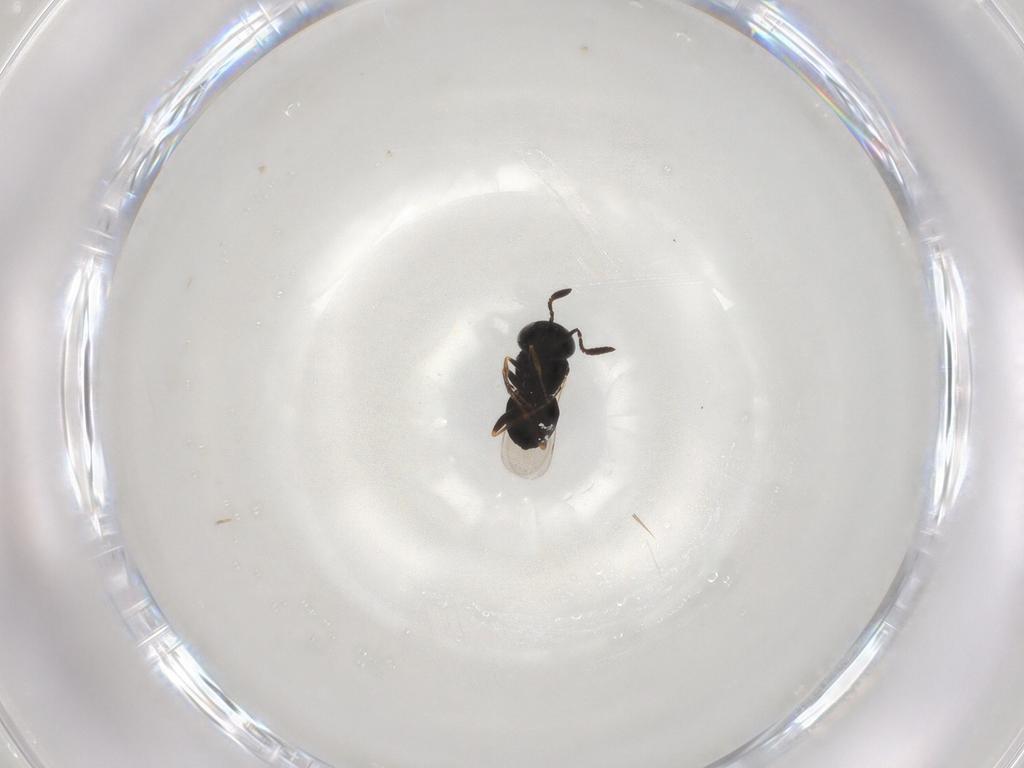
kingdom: Animalia
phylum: Arthropoda
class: Insecta
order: Hymenoptera
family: Scelionidae
